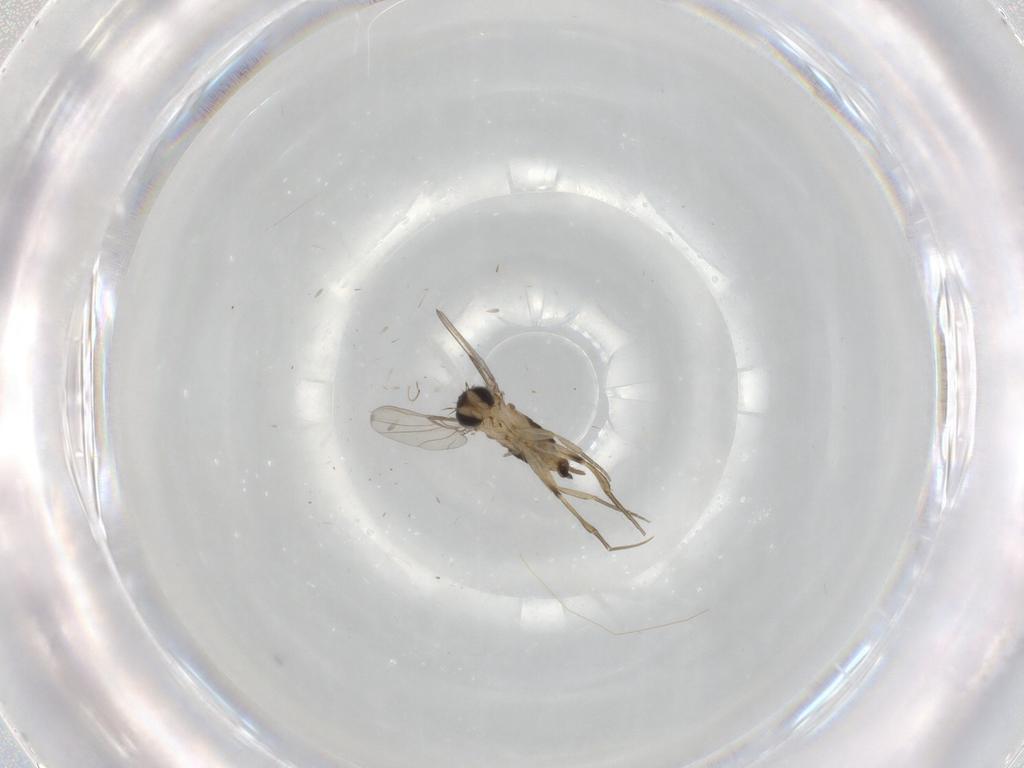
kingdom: Animalia
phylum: Arthropoda
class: Insecta
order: Diptera
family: Phoridae
